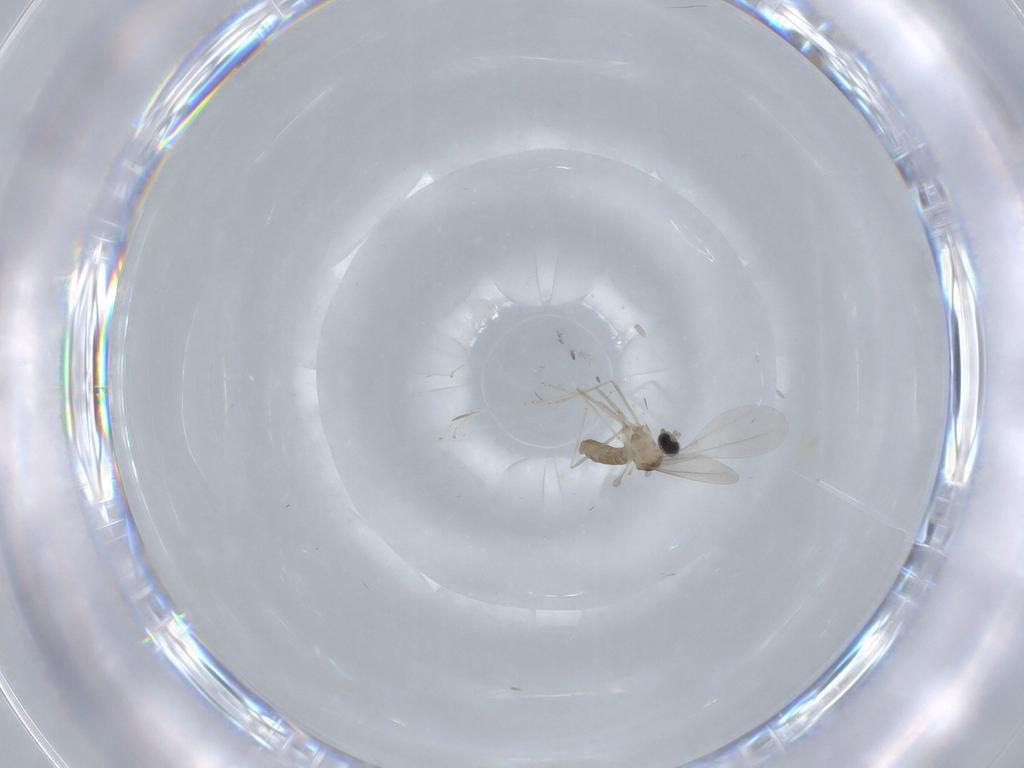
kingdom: Animalia
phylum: Arthropoda
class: Insecta
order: Diptera
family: Cecidomyiidae
